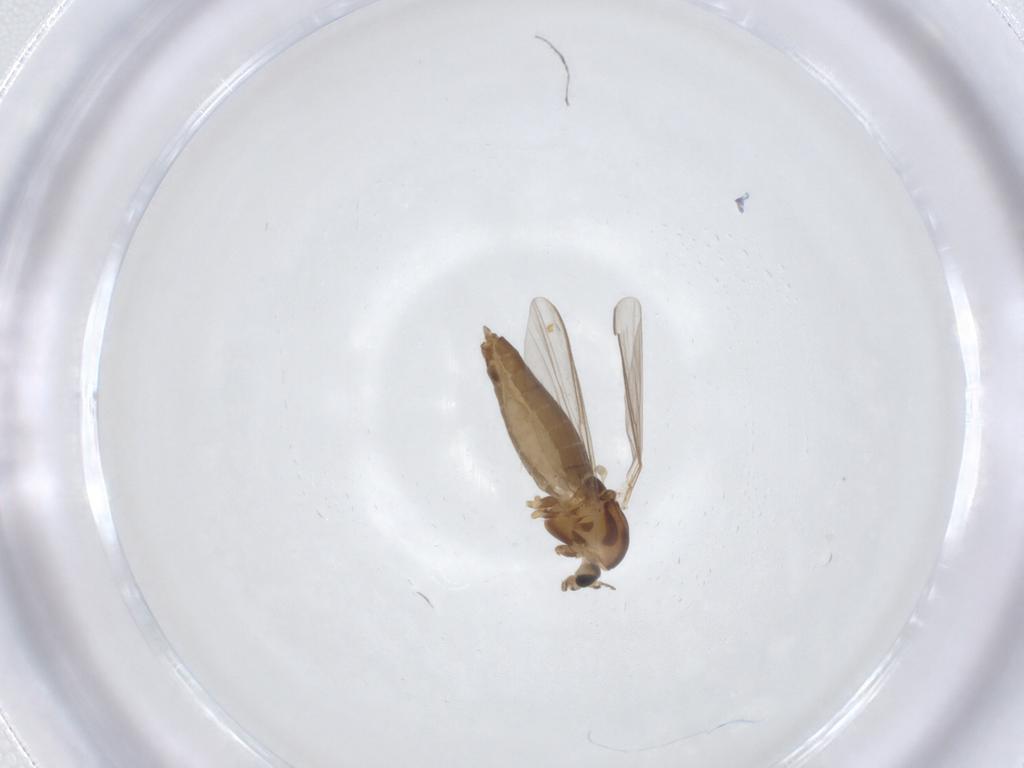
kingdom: Animalia
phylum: Arthropoda
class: Insecta
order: Diptera
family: Chironomidae
